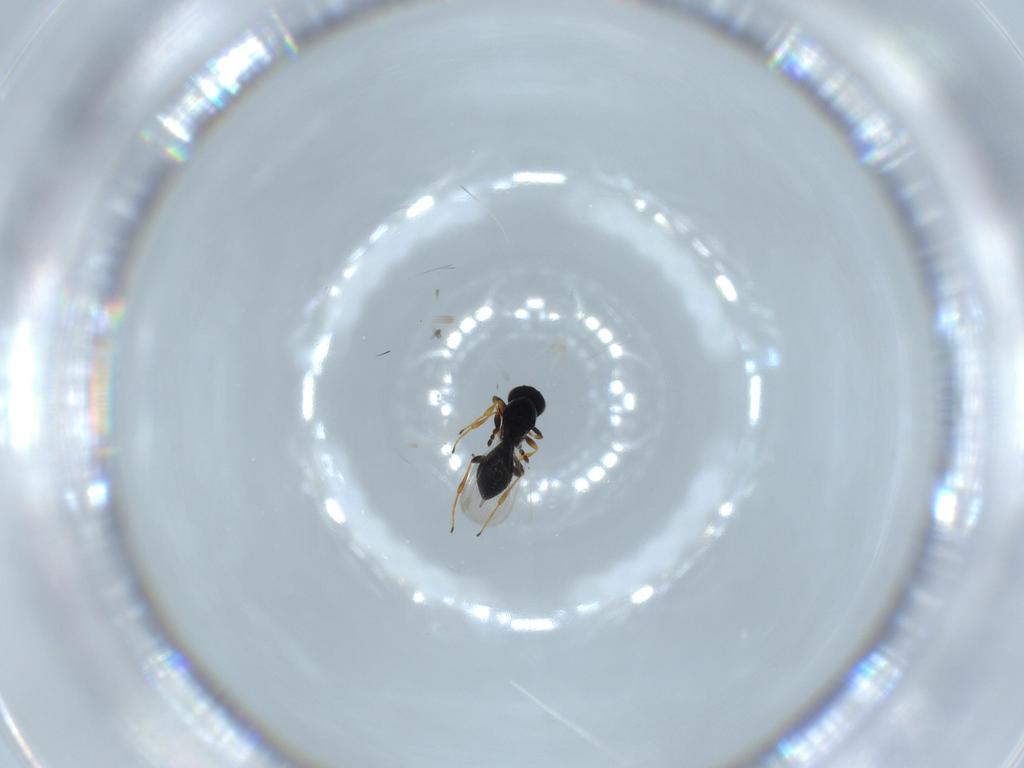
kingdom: Animalia
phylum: Arthropoda
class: Insecta
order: Hymenoptera
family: Platygastridae
